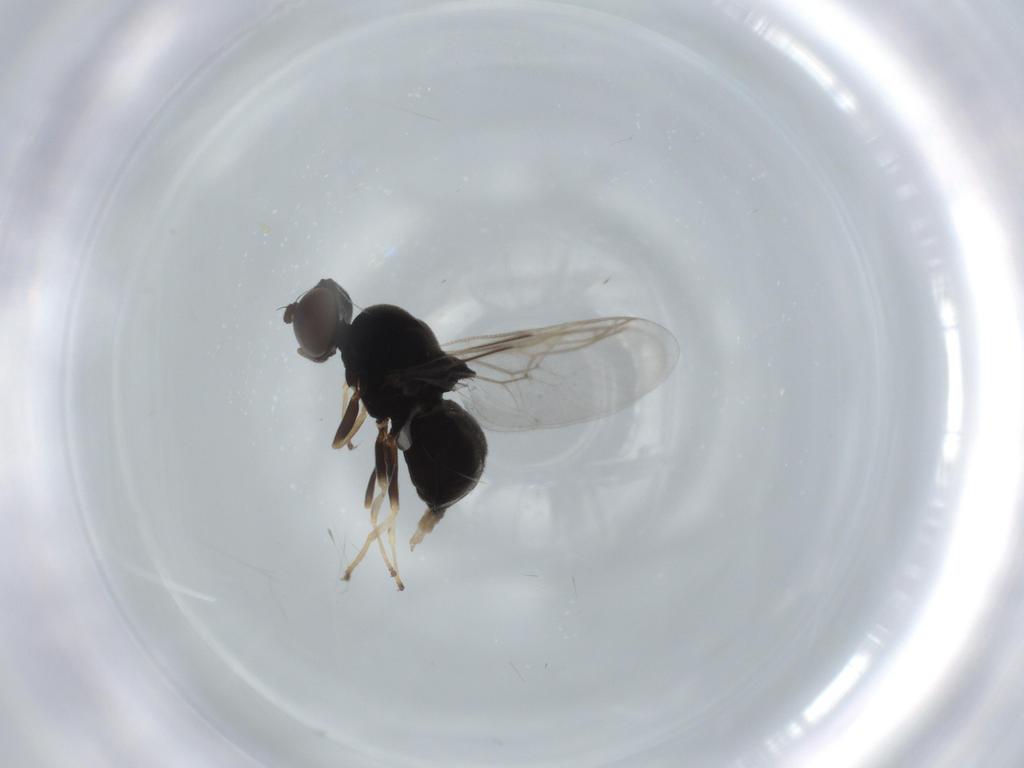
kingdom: Animalia
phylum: Arthropoda
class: Insecta
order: Diptera
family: Stratiomyidae
